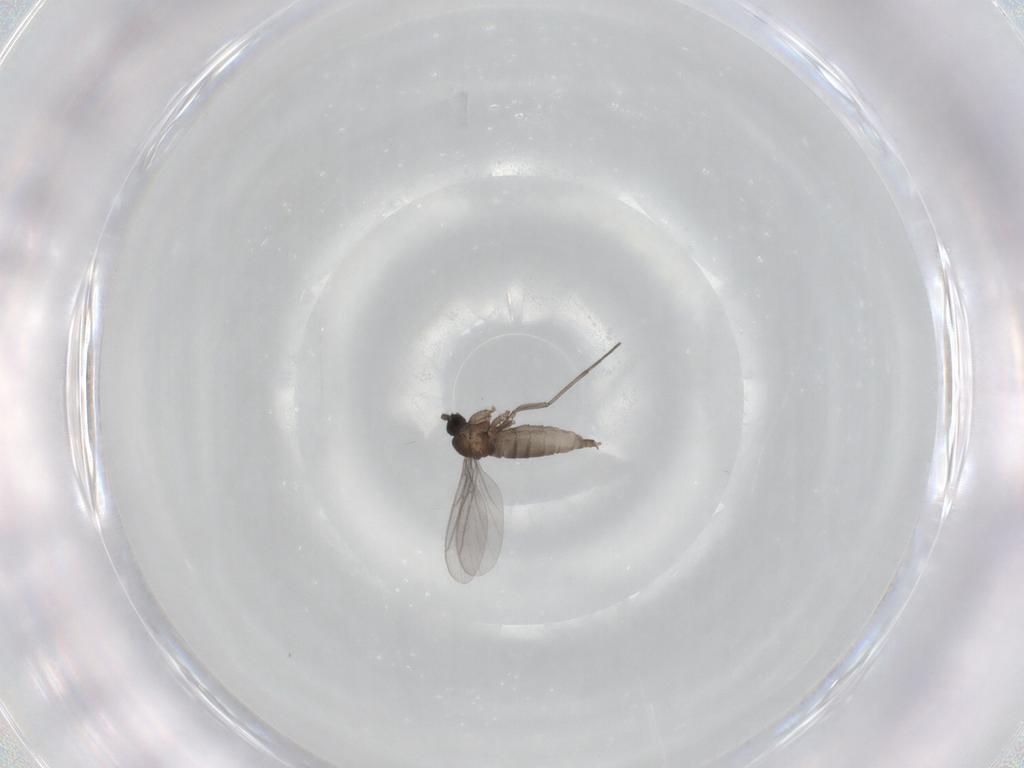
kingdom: Animalia
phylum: Arthropoda
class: Insecta
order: Diptera
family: Sciaridae
